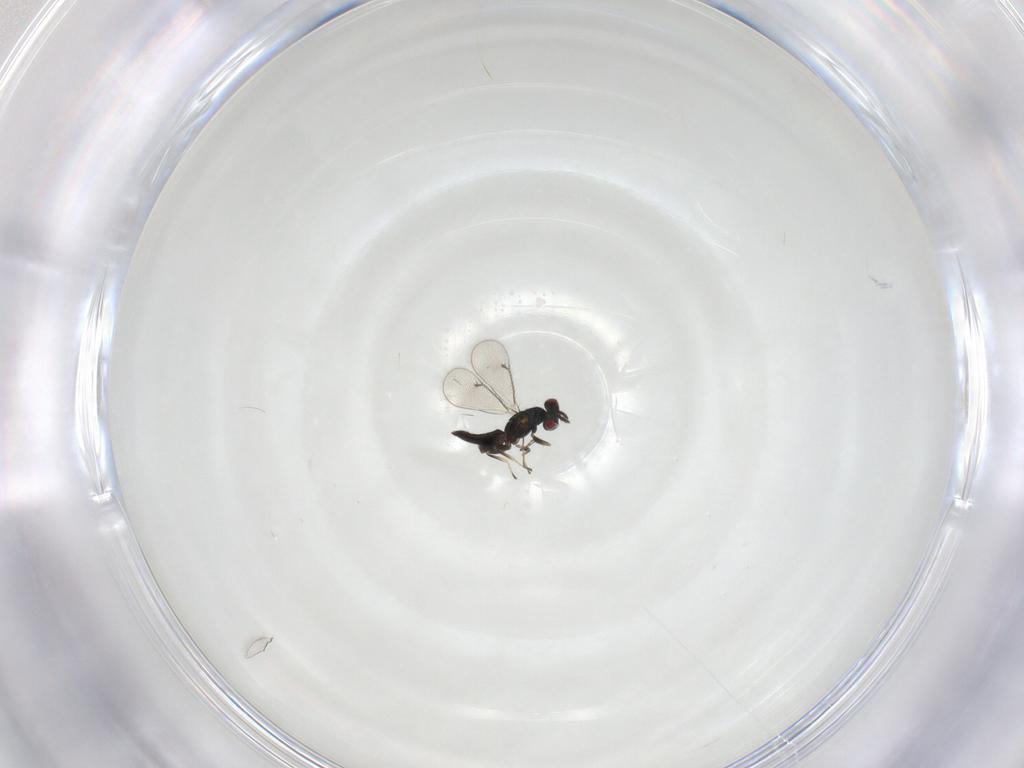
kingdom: Animalia
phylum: Arthropoda
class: Insecta
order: Hymenoptera
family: Eulophidae
